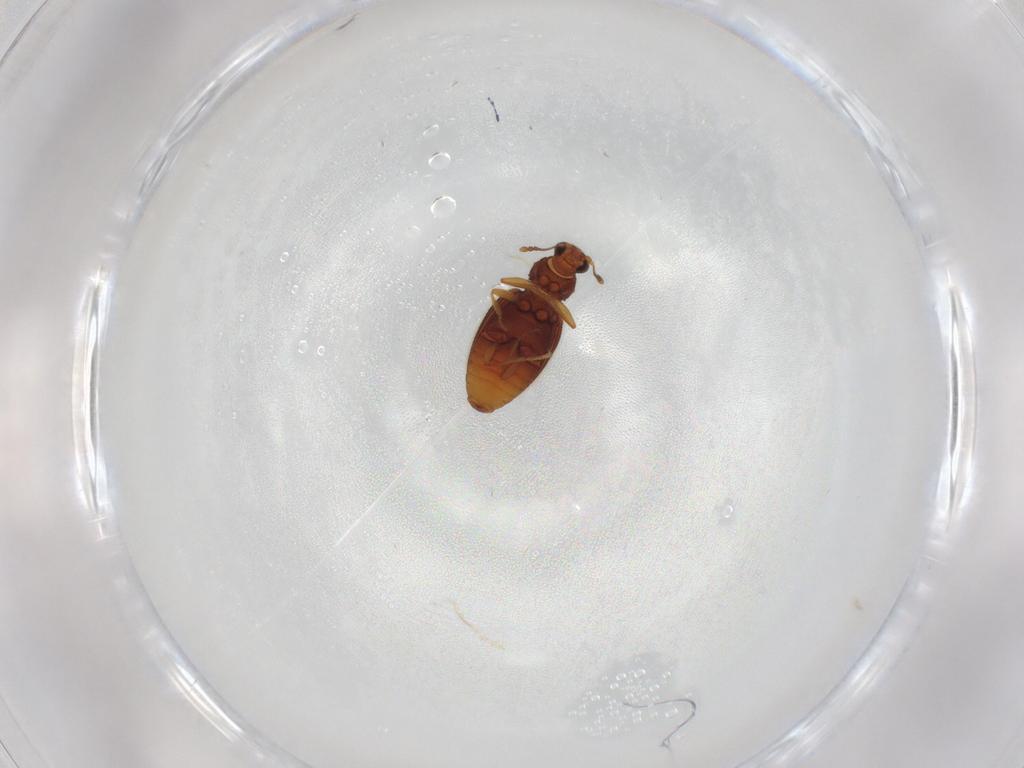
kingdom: Animalia
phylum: Arthropoda
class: Insecta
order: Coleoptera
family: Latridiidae
